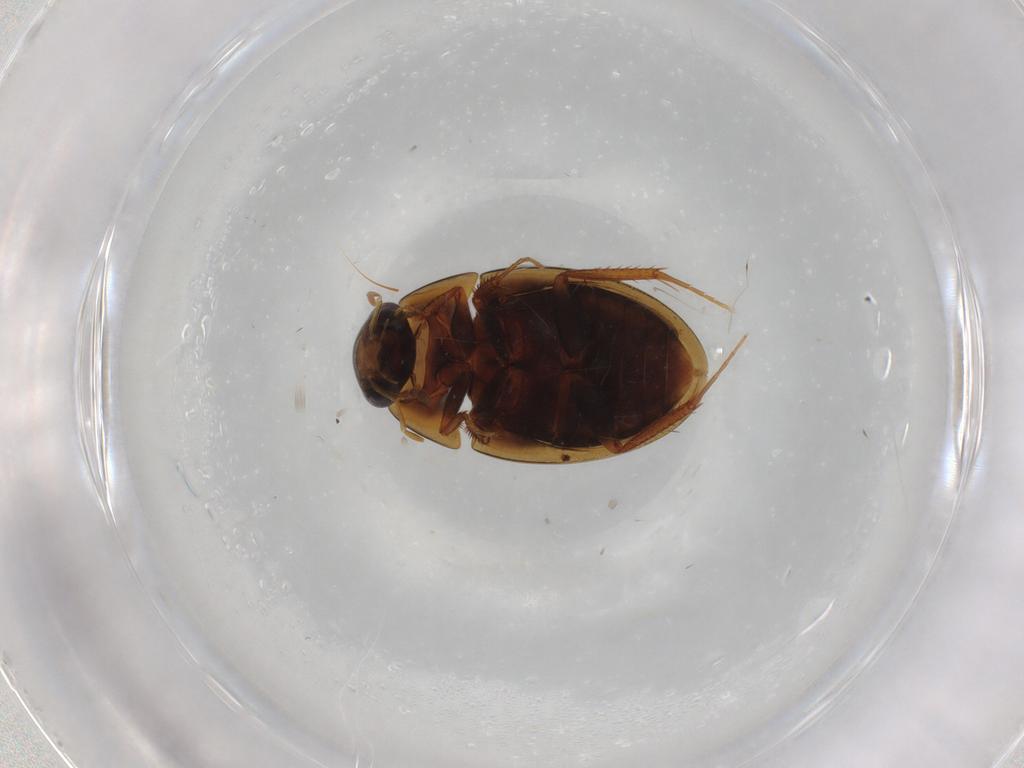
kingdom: Animalia
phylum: Arthropoda
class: Insecta
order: Coleoptera
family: Hydrophilidae
